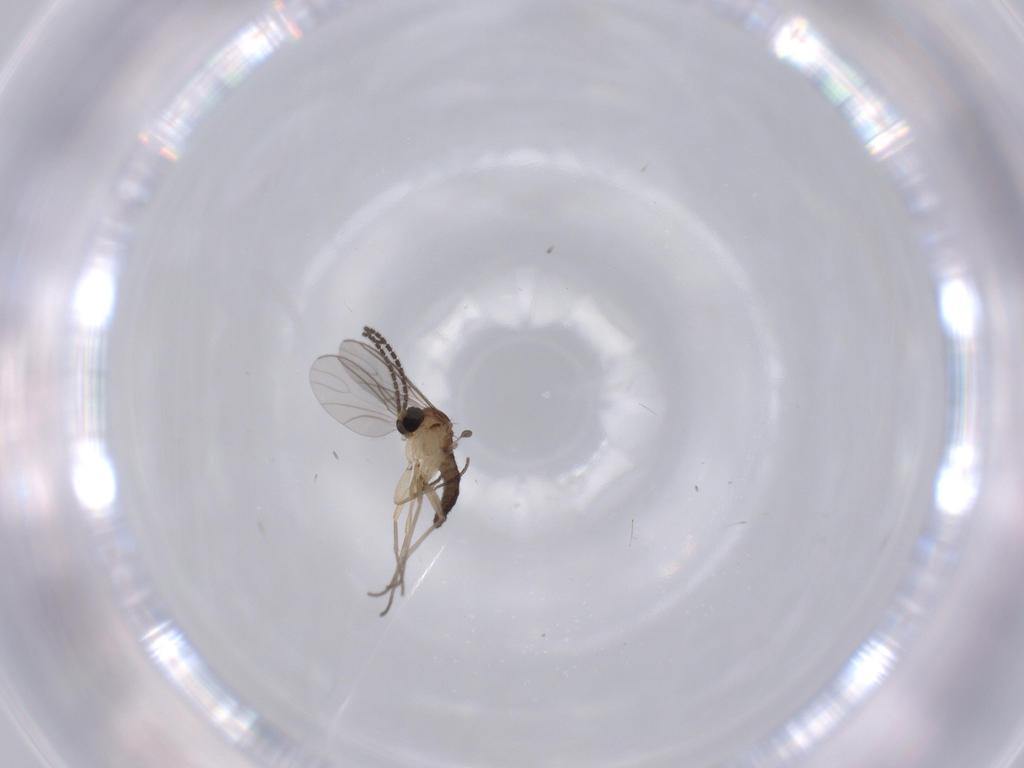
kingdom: Animalia
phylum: Arthropoda
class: Insecta
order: Diptera
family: Sciaridae
